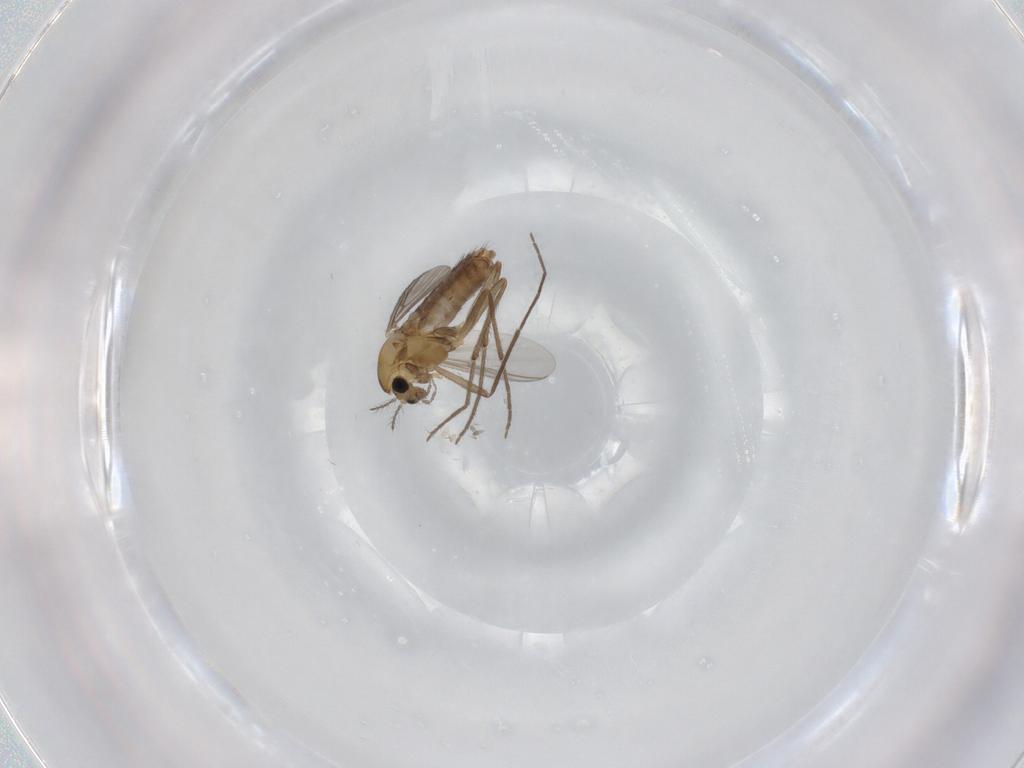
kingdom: Animalia
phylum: Arthropoda
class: Insecta
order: Diptera
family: Chironomidae
